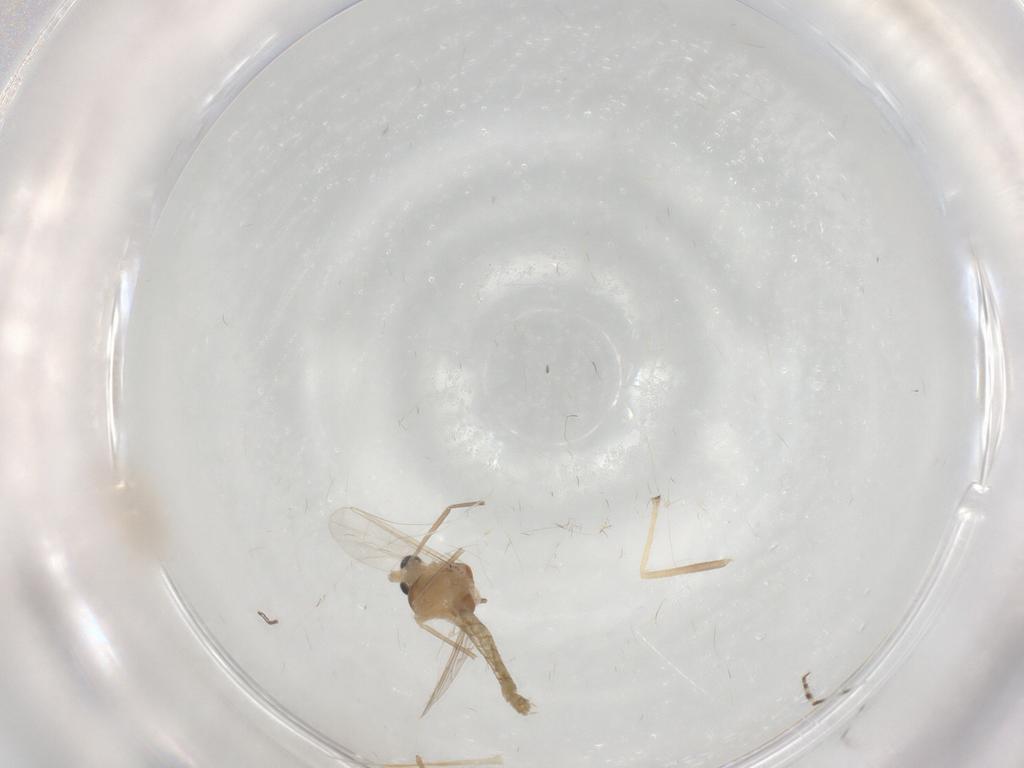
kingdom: Animalia
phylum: Arthropoda
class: Insecta
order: Diptera
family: Chironomidae
